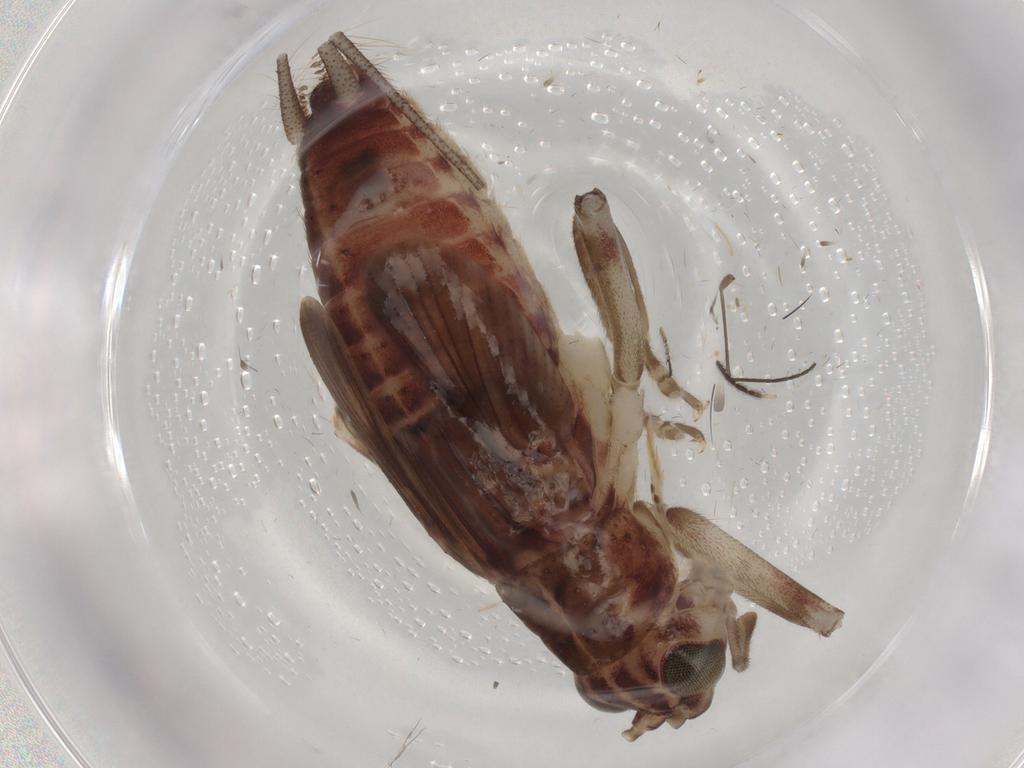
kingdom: Animalia
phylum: Arthropoda
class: Insecta
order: Orthoptera
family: Trigonidiidae
